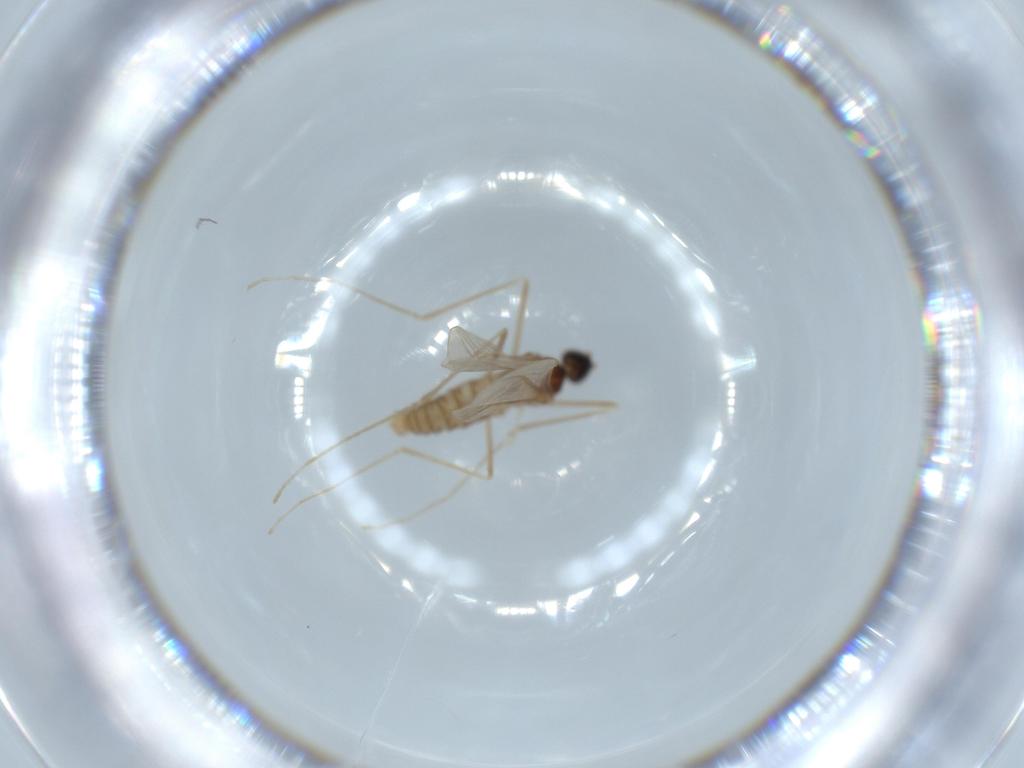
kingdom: Animalia
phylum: Arthropoda
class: Insecta
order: Diptera
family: Cecidomyiidae
